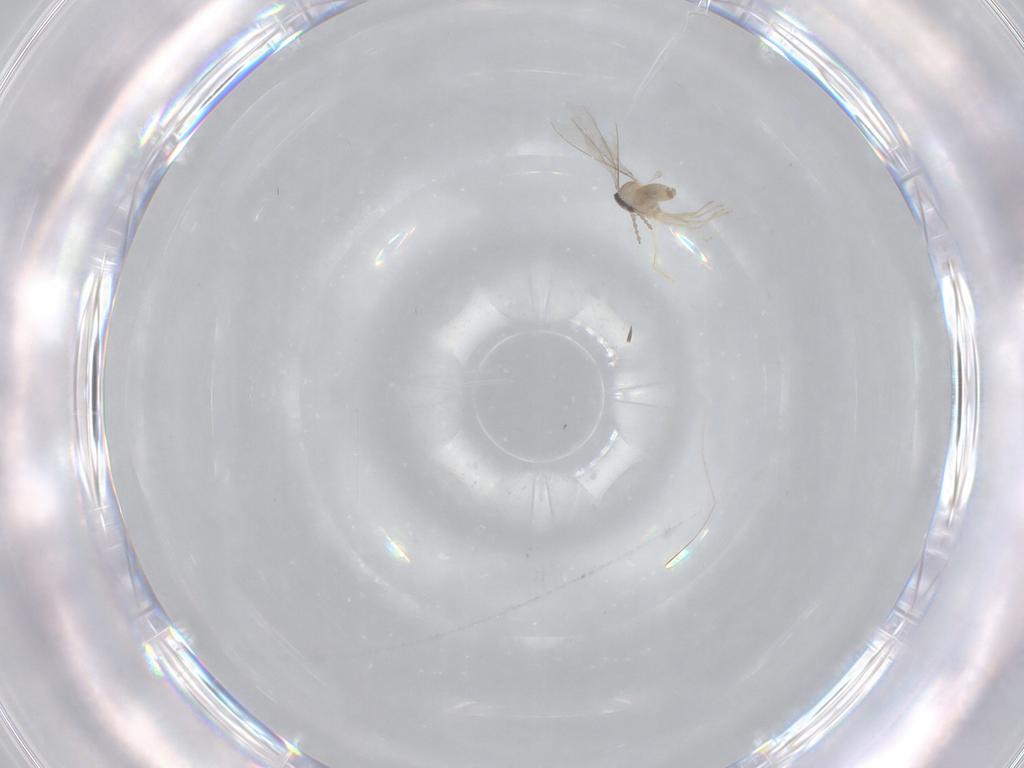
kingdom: Animalia
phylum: Arthropoda
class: Insecta
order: Diptera
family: Cecidomyiidae
